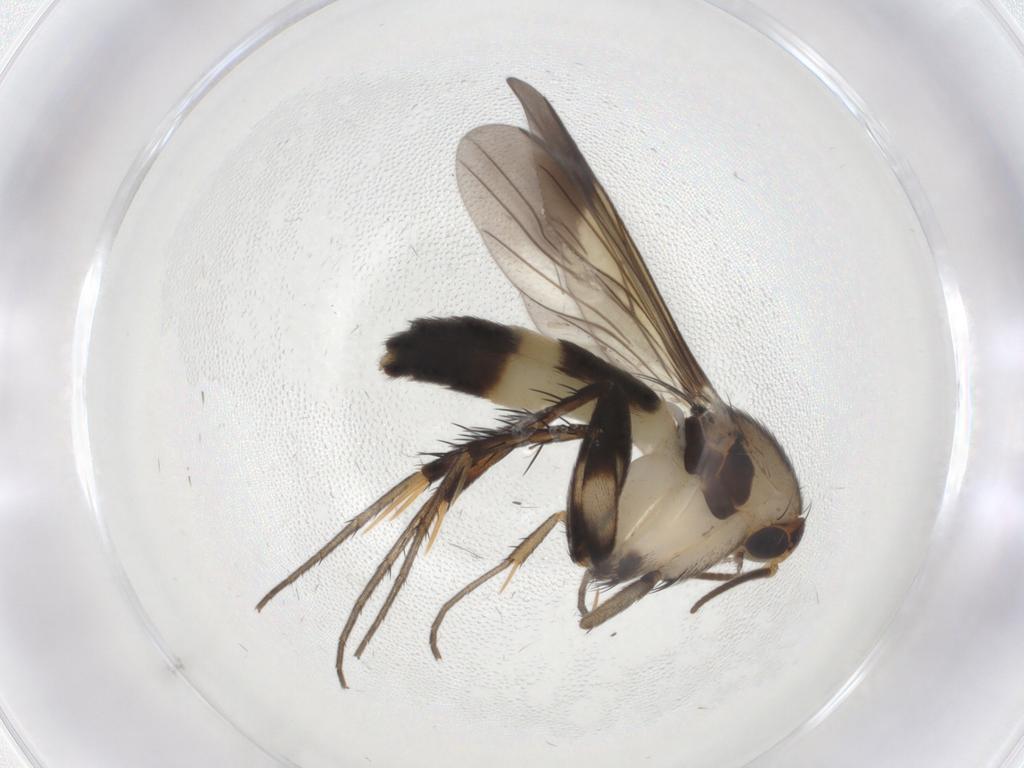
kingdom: Animalia
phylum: Arthropoda
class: Insecta
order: Diptera
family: Mycetophilidae
